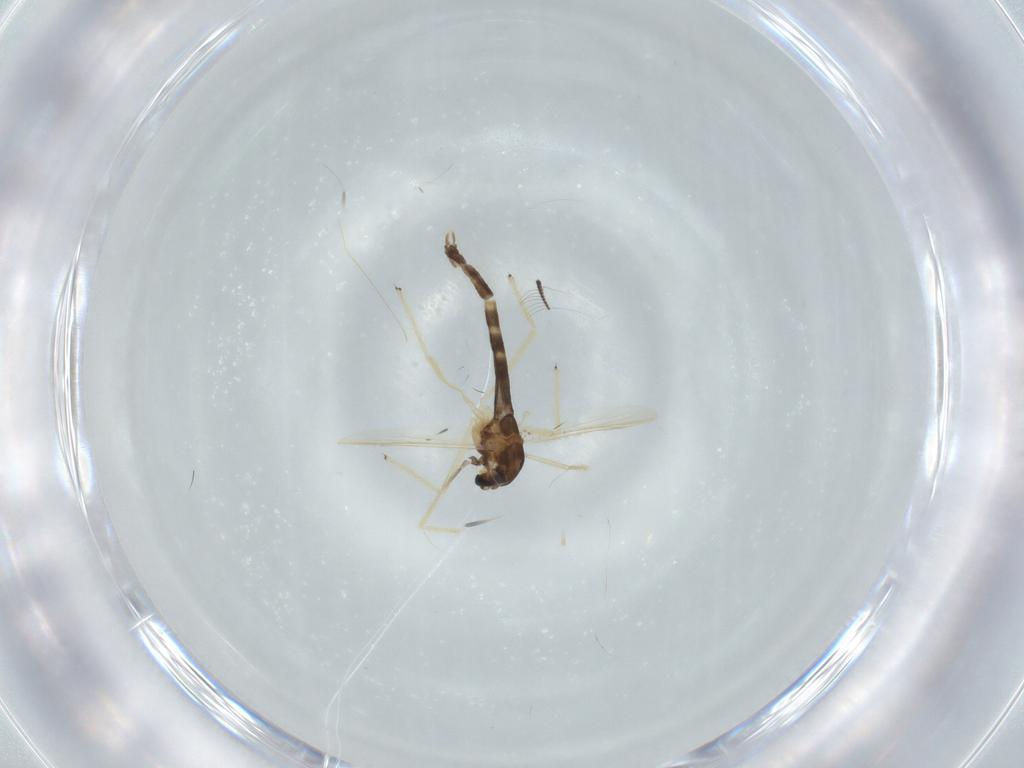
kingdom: Animalia
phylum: Arthropoda
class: Insecta
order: Diptera
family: Chironomidae
